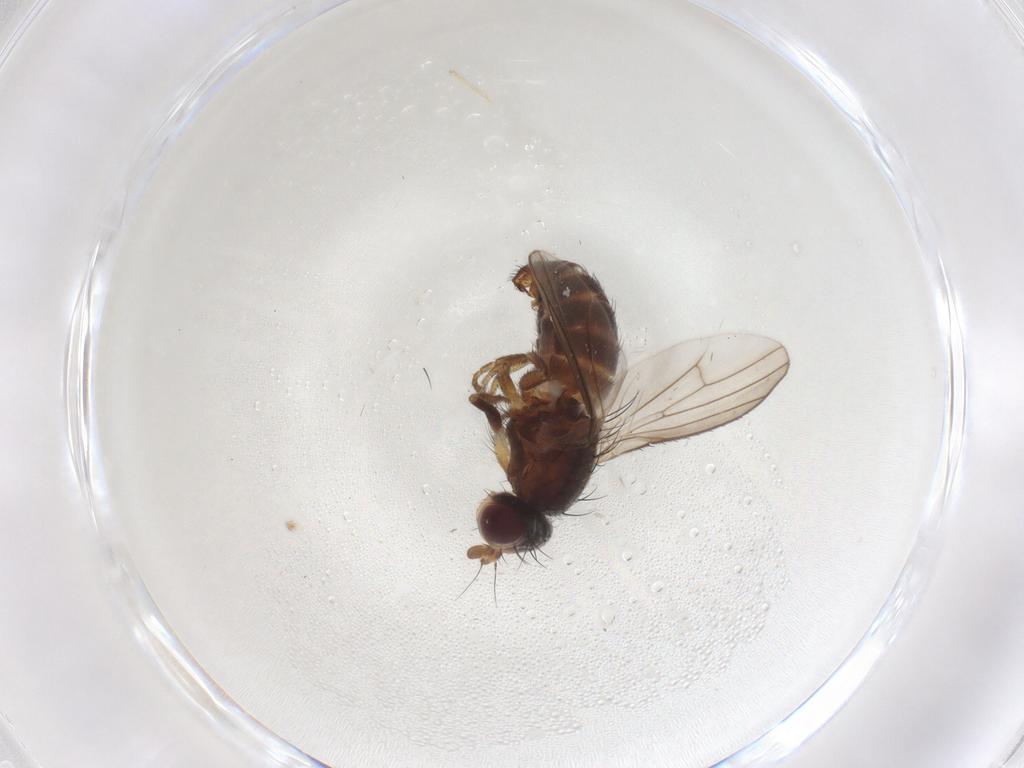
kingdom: Animalia
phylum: Arthropoda
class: Insecta
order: Diptera
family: Heleomyzidae
